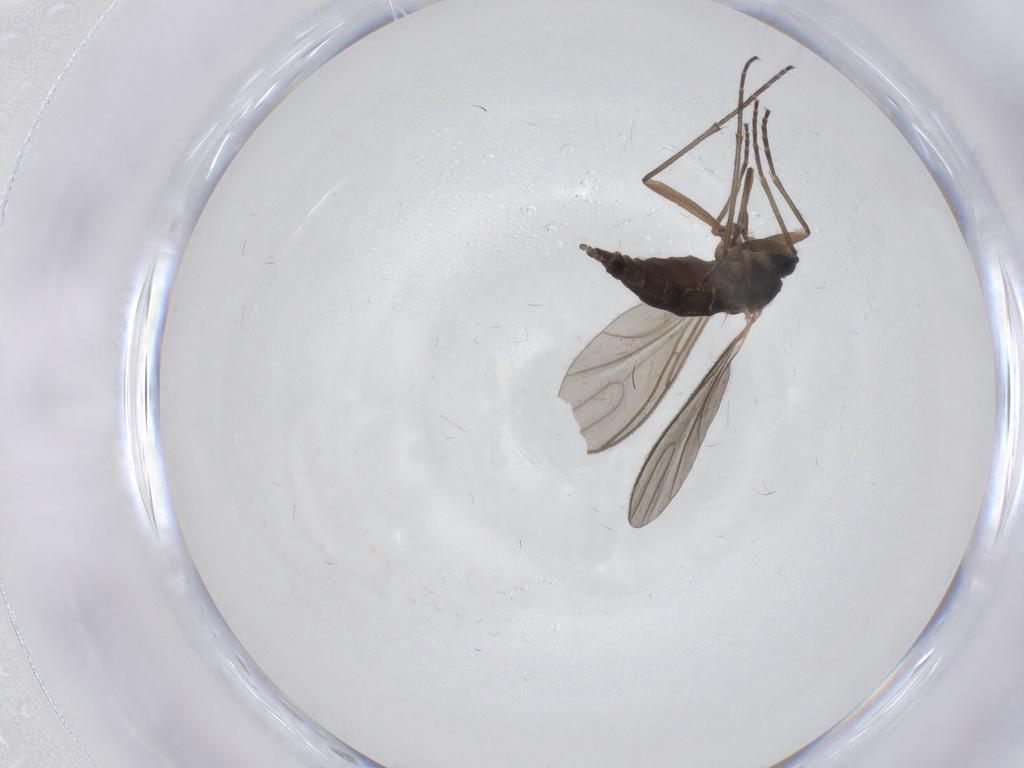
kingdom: Animalia
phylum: Arthropoda
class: Insecta
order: Diptera
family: Sciaridae
